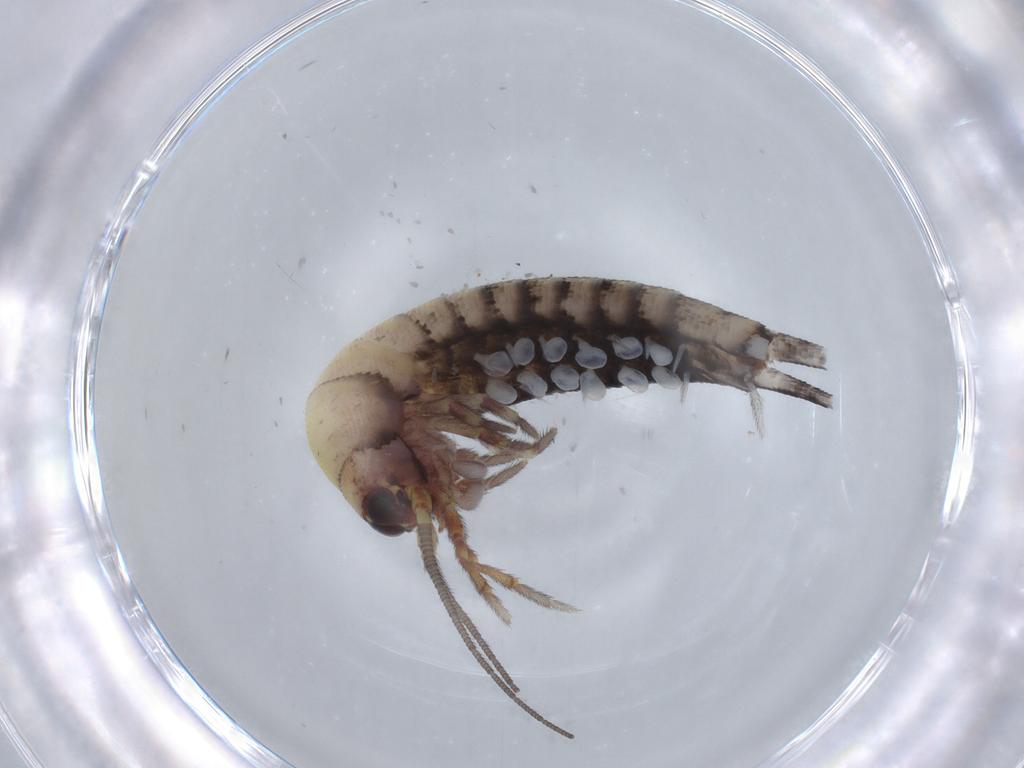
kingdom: Animalia
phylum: Arthropoda
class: Insecta
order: Archaeognatha
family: Meinertellidae
